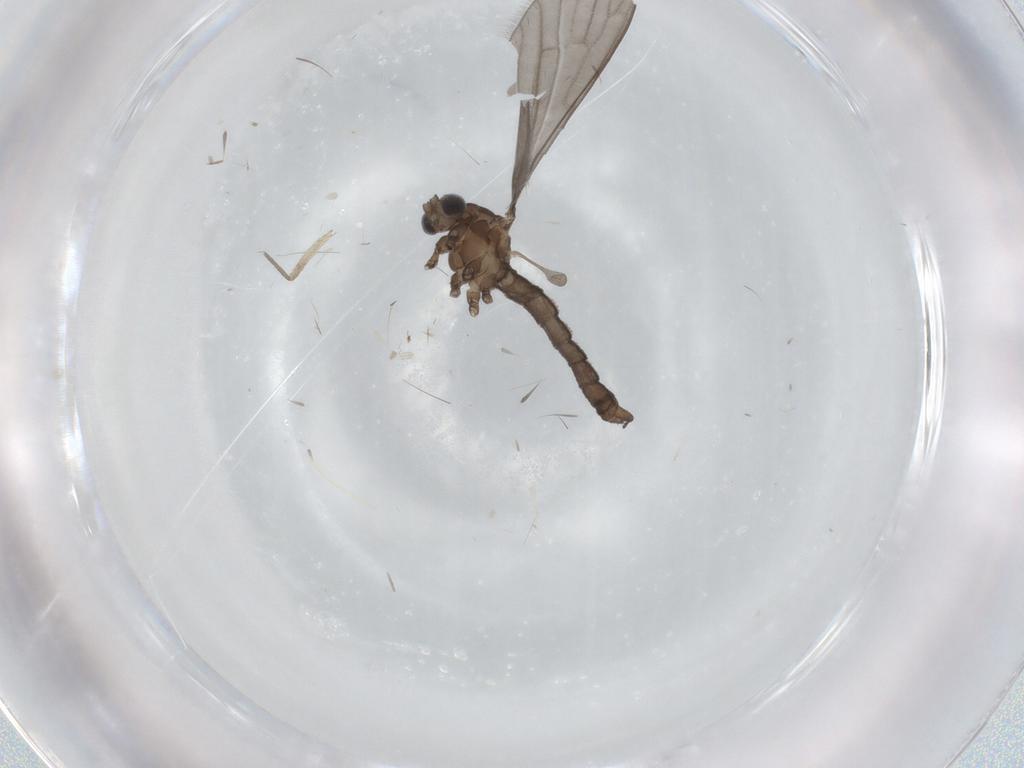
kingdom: Animalia
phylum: Arthropoda
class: Insecta
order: Diptera
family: Chironomidae
